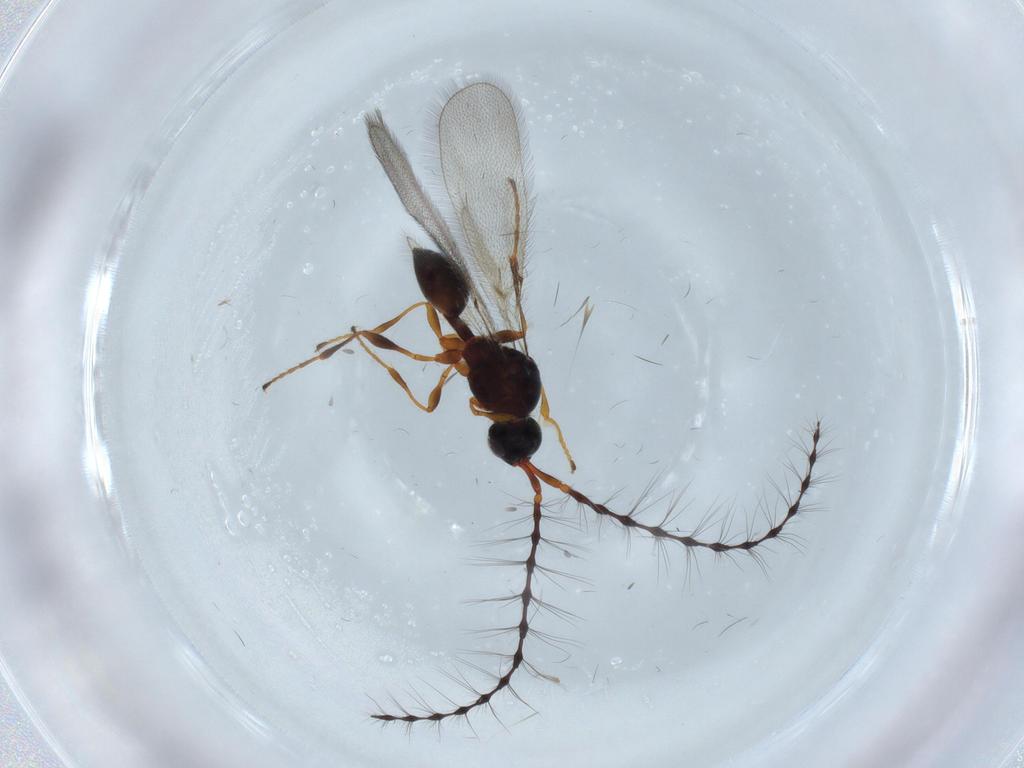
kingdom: Animalia
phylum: Arthropoda
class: Insecta
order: Hymenoptera
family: Diapriidae
